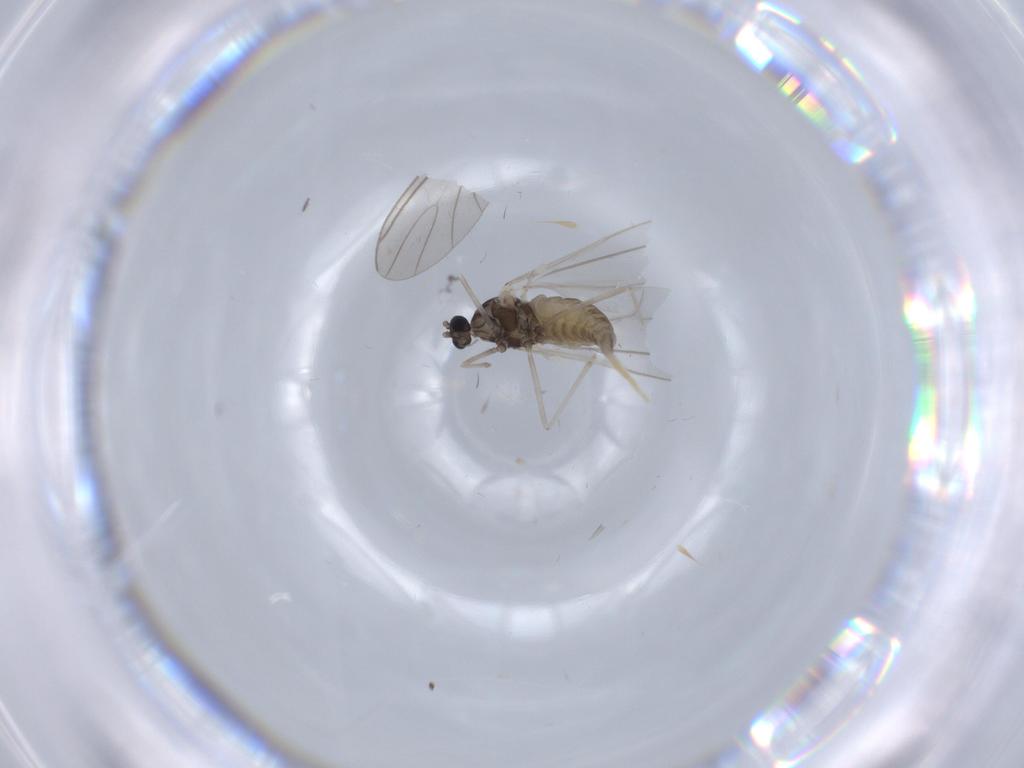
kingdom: Animalia
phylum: Arthropoda
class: Insecta
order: Diptera
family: Cecidomyiidae
